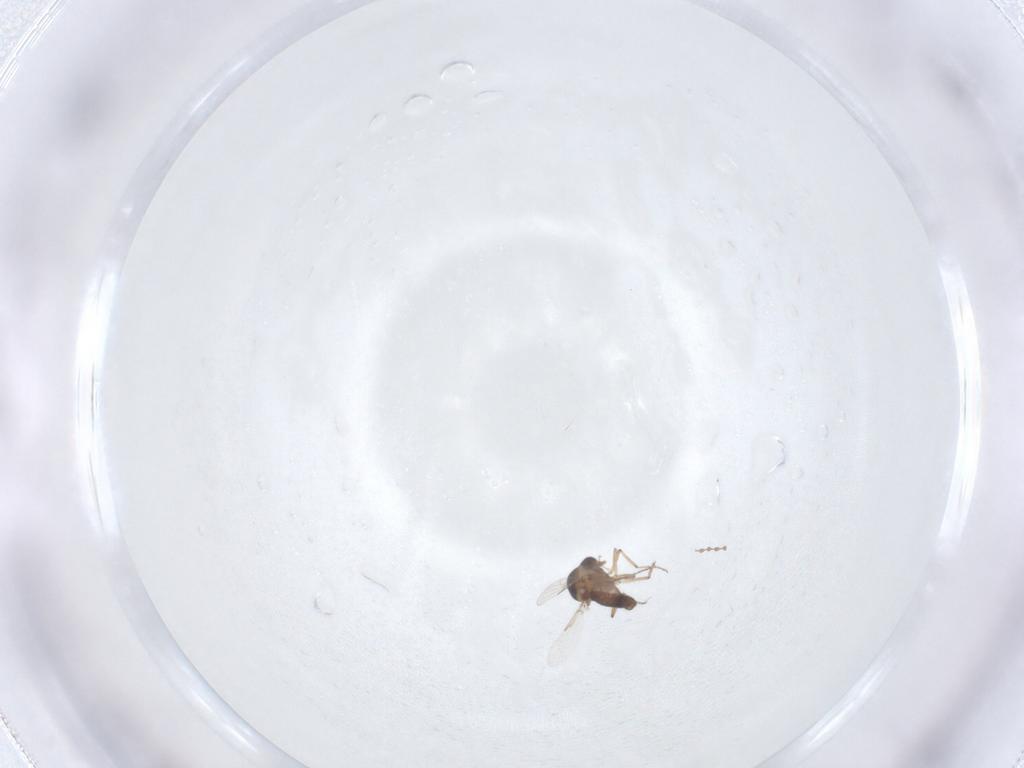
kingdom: Animalia
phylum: Arthropoda
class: Insecta
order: Diptera
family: Ceratopogonidae
